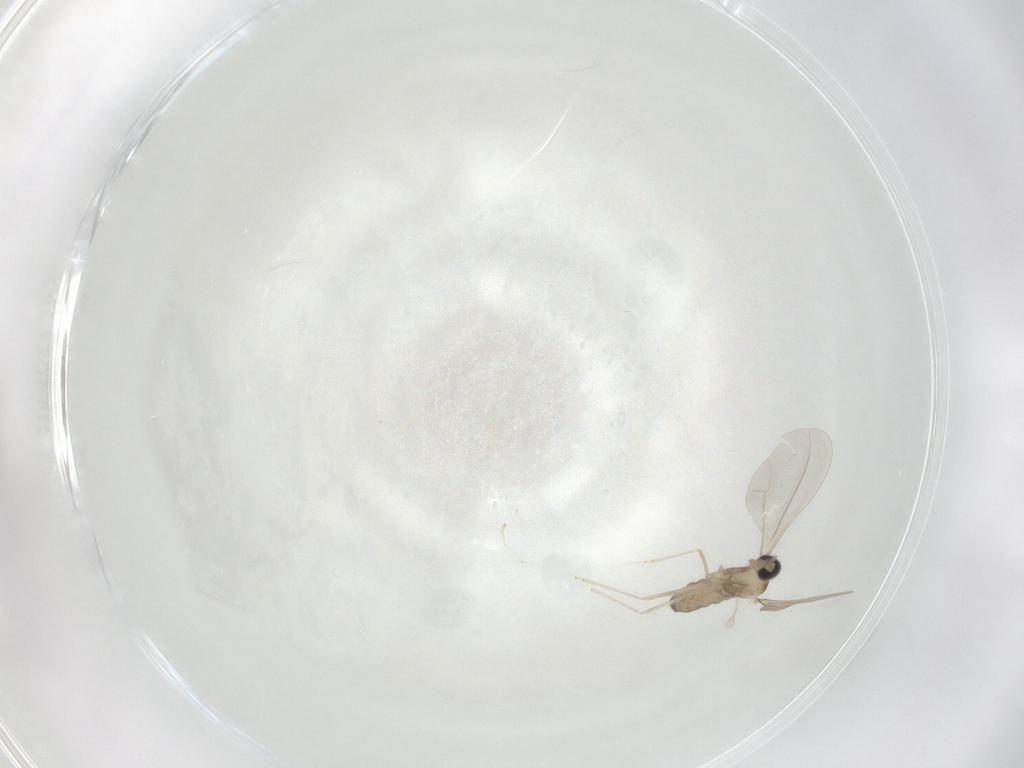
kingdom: Animalia
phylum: Arthropoda
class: Insecta
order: Diptera
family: Cecidomyiidae
